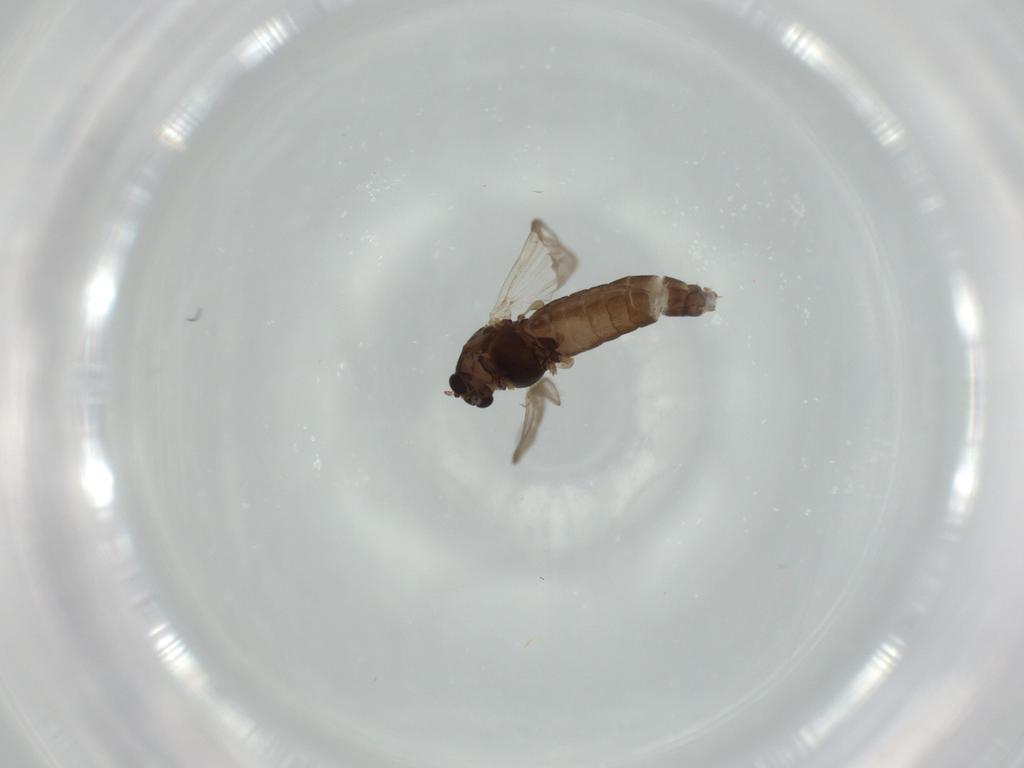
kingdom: Animalia
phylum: Arthropoda
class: Insecta
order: Diptera
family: Chironomidae
